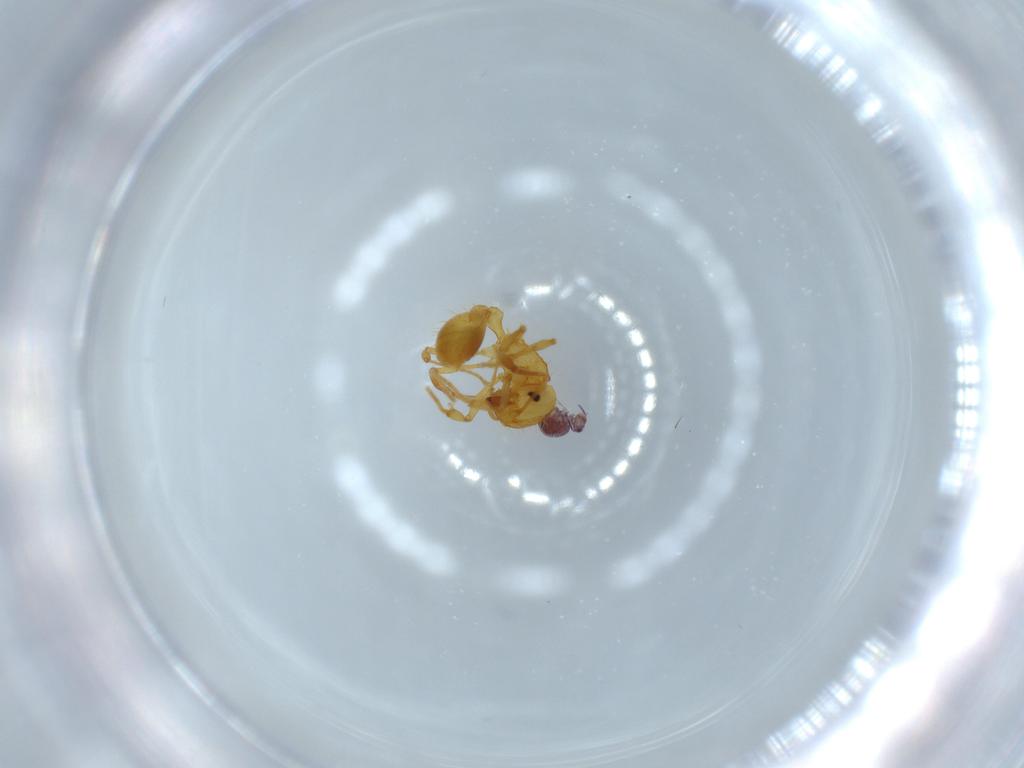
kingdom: Animalia
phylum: Arthropoda
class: Insecta
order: Hymenoptera
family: Formicidae
